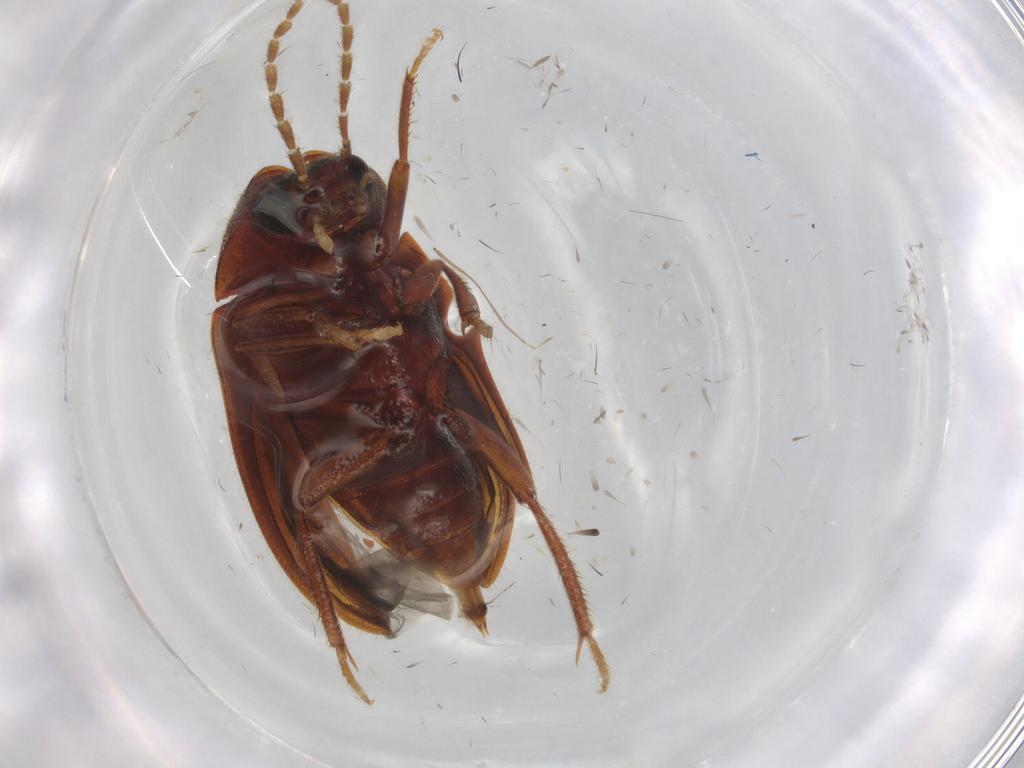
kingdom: Animalia
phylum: Arthropoda
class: Insecta
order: Coleoptera
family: Ptilodactylidae
